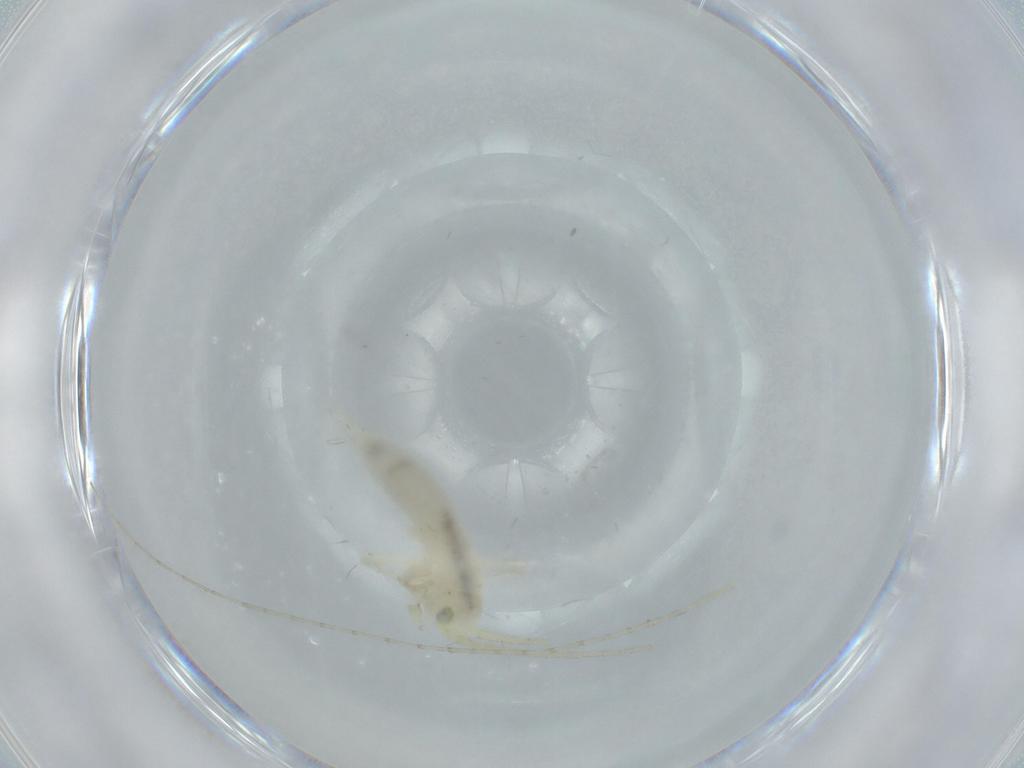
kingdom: Animalia
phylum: Arthropoda
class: Insecta
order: Orthoptera
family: Trigonidiidae
